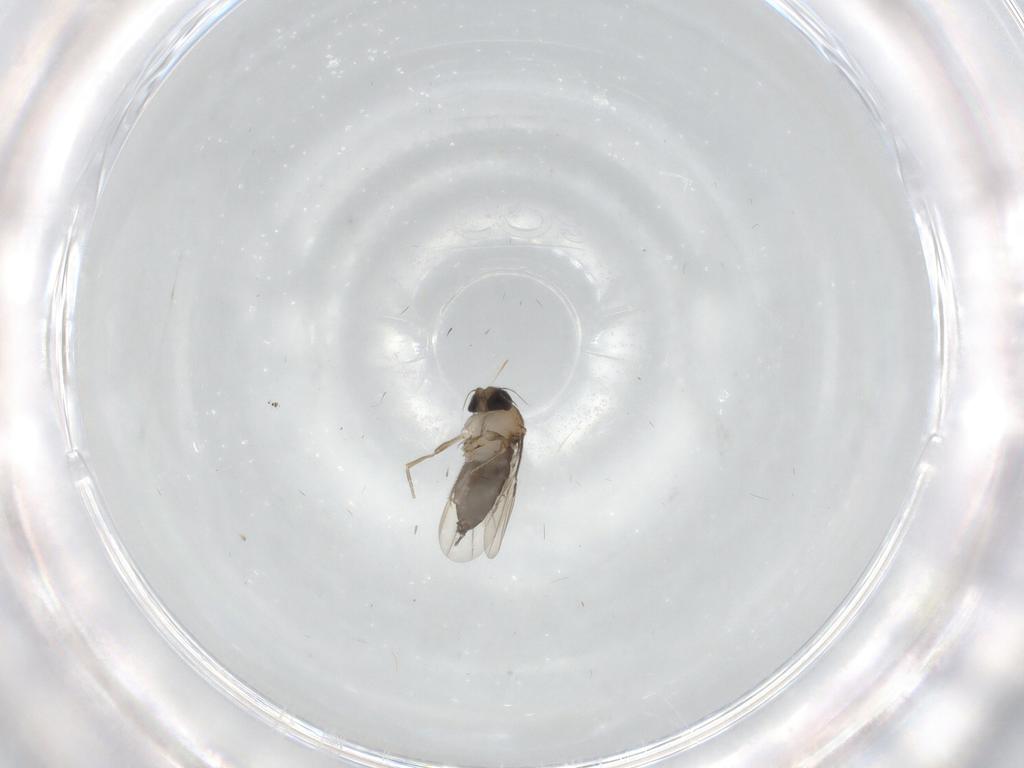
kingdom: Animalia
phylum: Arthropoda
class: Insecta
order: Diptera
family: Phoridae
